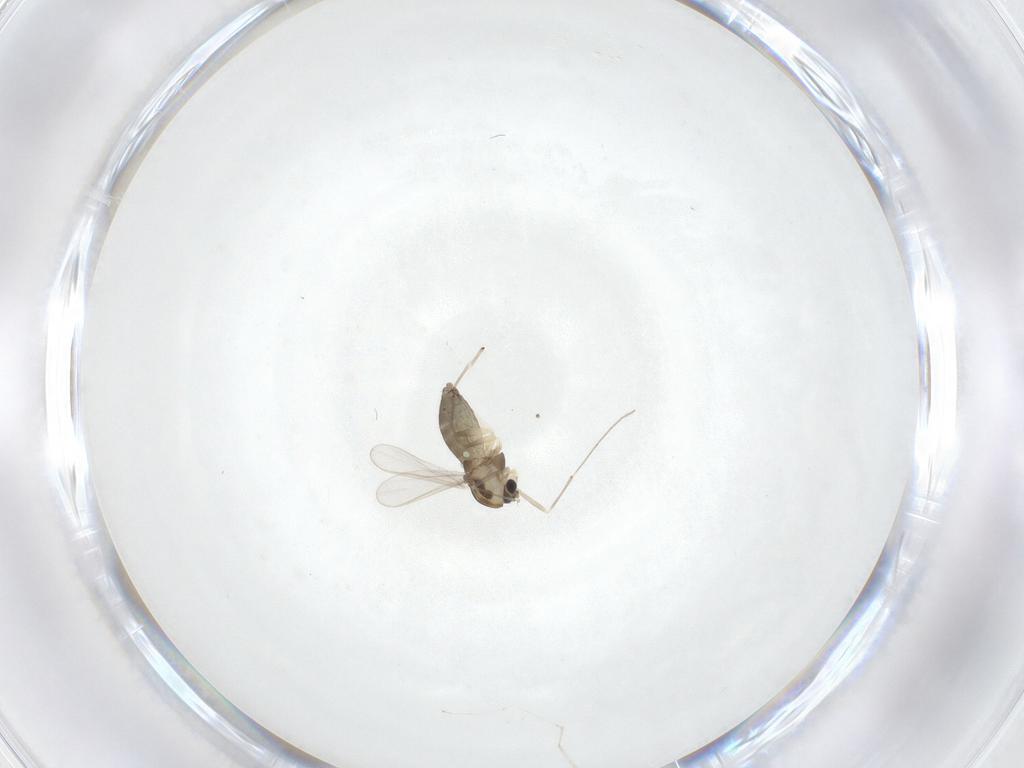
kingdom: Animalia
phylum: Arthropoda
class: Insecta
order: Diptera
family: Chironomidae
